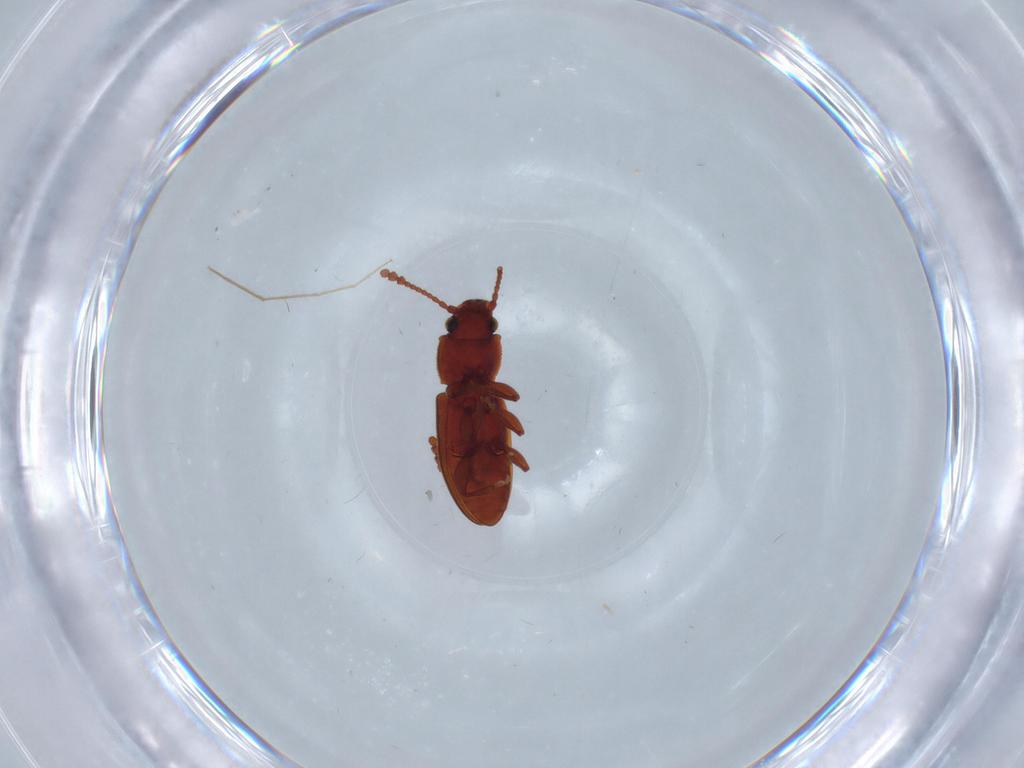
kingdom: Animalia
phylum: Arthropoda
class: Insecta
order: Coleoptera
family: Silvanidae
